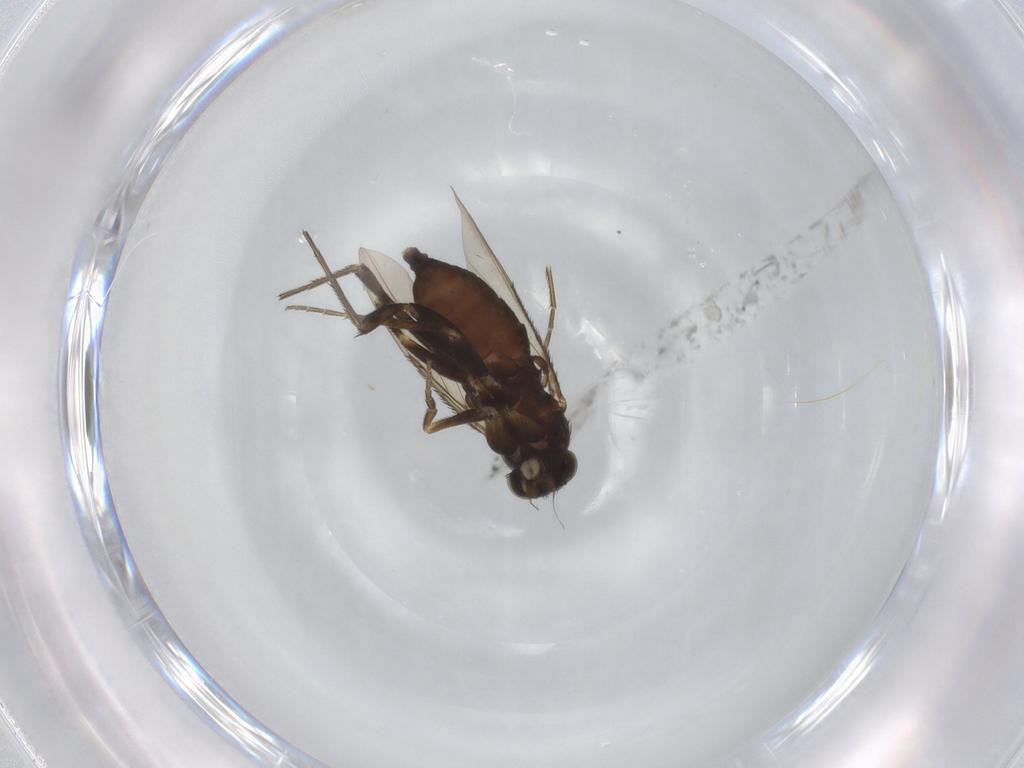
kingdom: Animalia
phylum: Arthropoda
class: Insecta
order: Diptera
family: Phoridae
